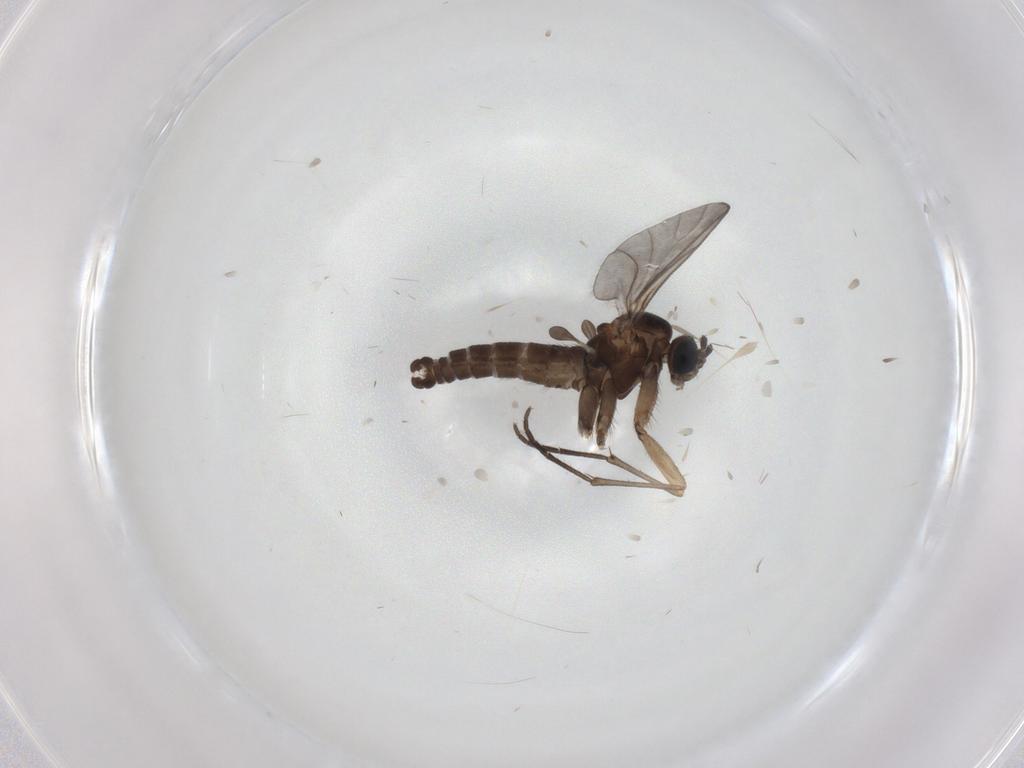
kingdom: Animalia
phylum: Arthropoda
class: Insecta
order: Diptera
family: Sciaridae
